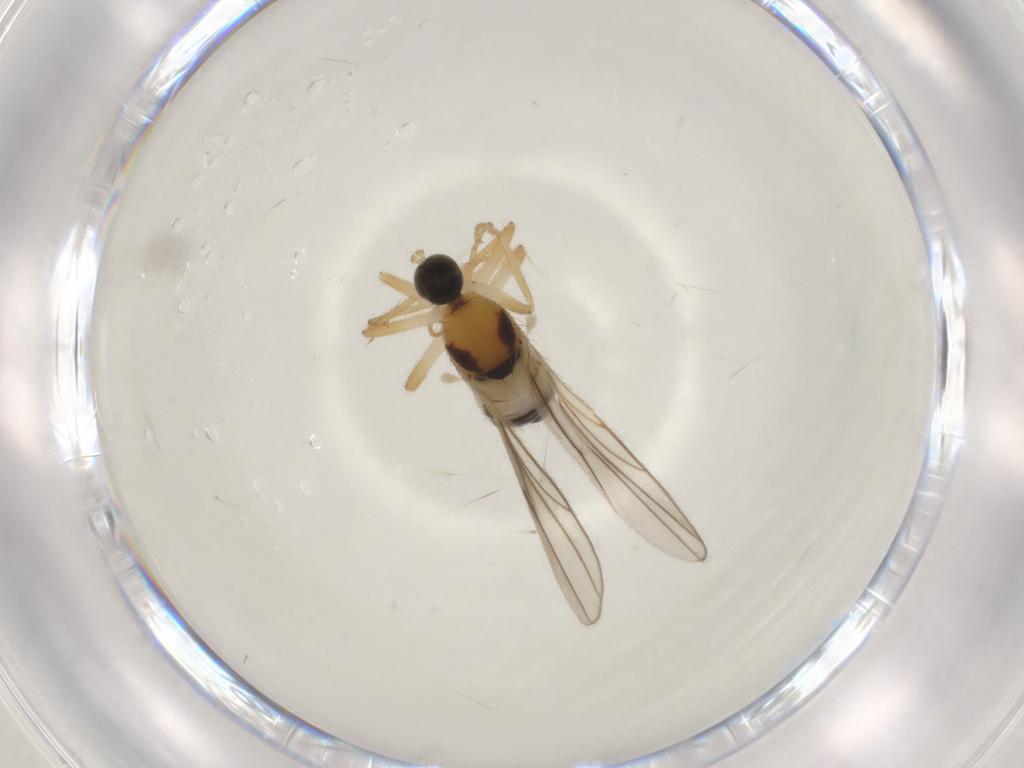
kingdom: Animalia
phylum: Arthropoda
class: Insecta
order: Diptera
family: Hybotidae
